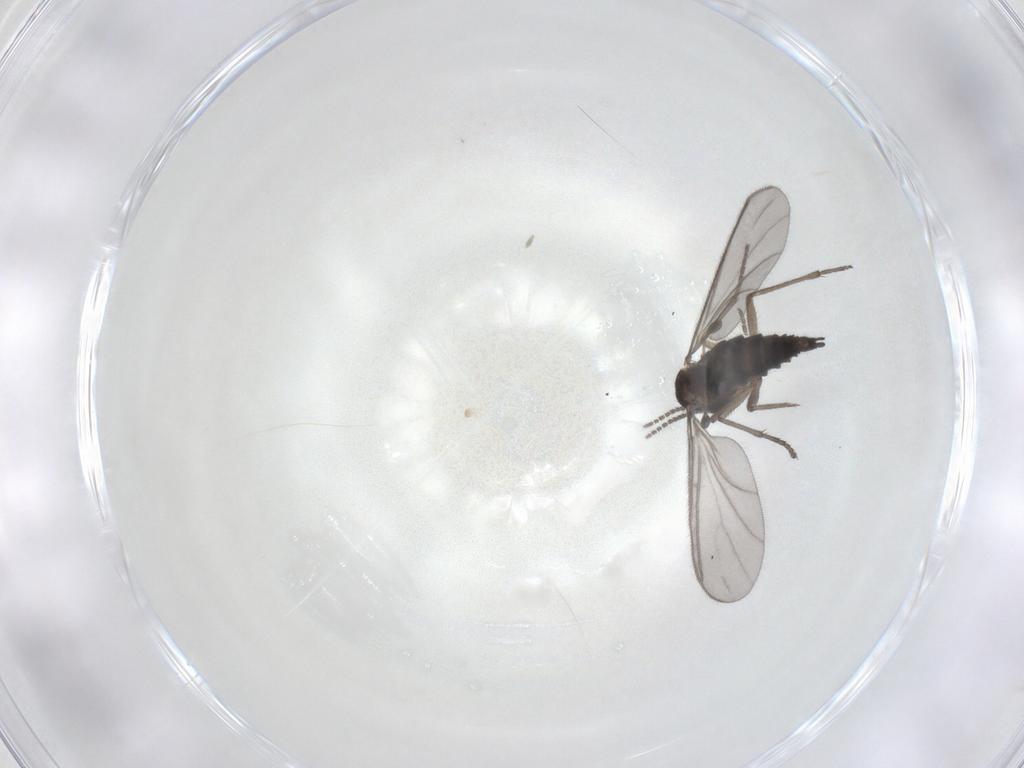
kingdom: Animalia
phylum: Arthropoda
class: Insecta
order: Diptera
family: Sciaridae
